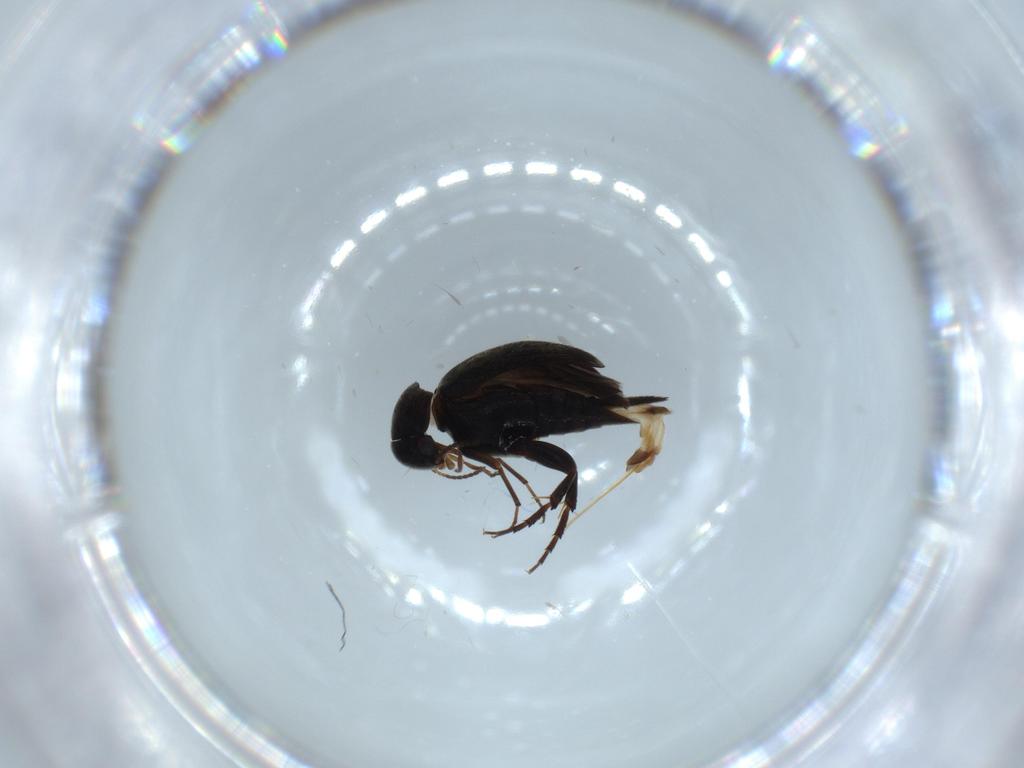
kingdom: Animalia
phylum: Arthropoda
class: Insecta
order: Coleoptera
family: Mordellidae
